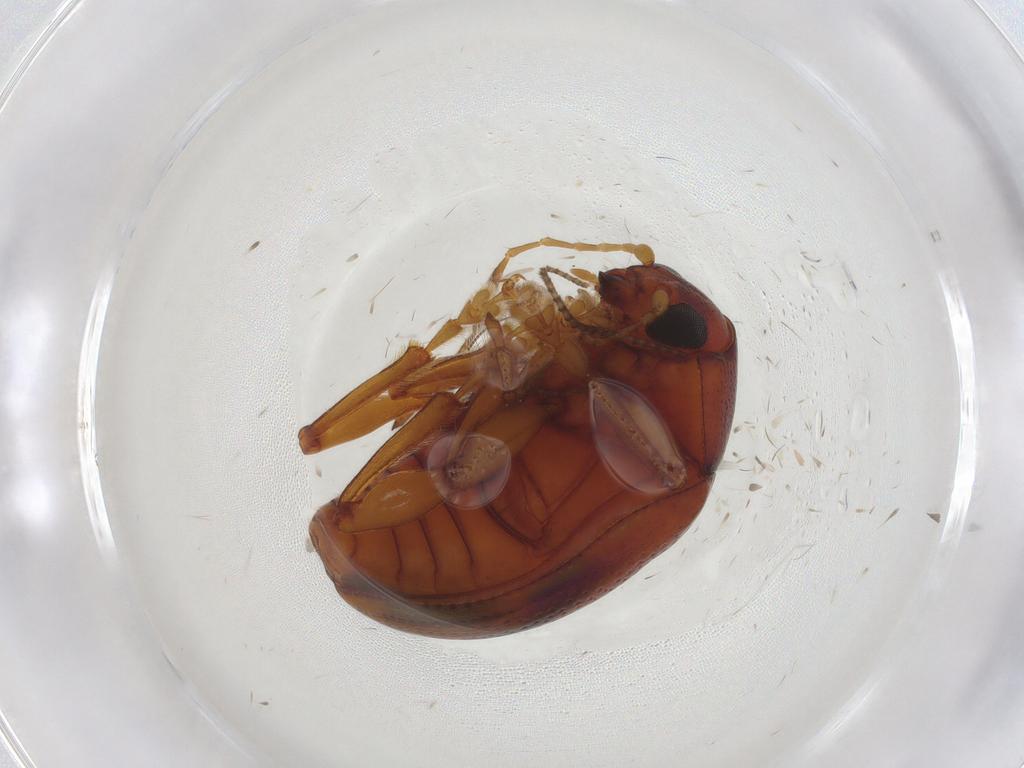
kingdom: Animalia
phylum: Arthropoda
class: Insecta
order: Coleoptera
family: Chrysomelidae
